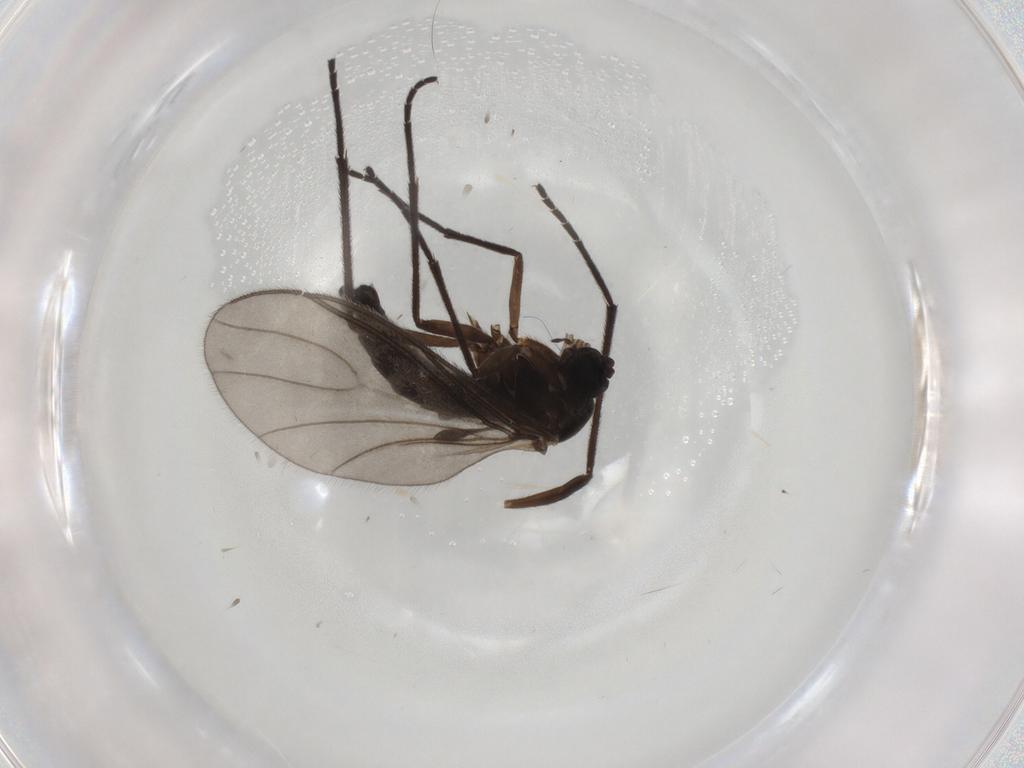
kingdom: Animalia
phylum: Arthropoda
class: Insecta
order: Diptera
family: Sciaridae
